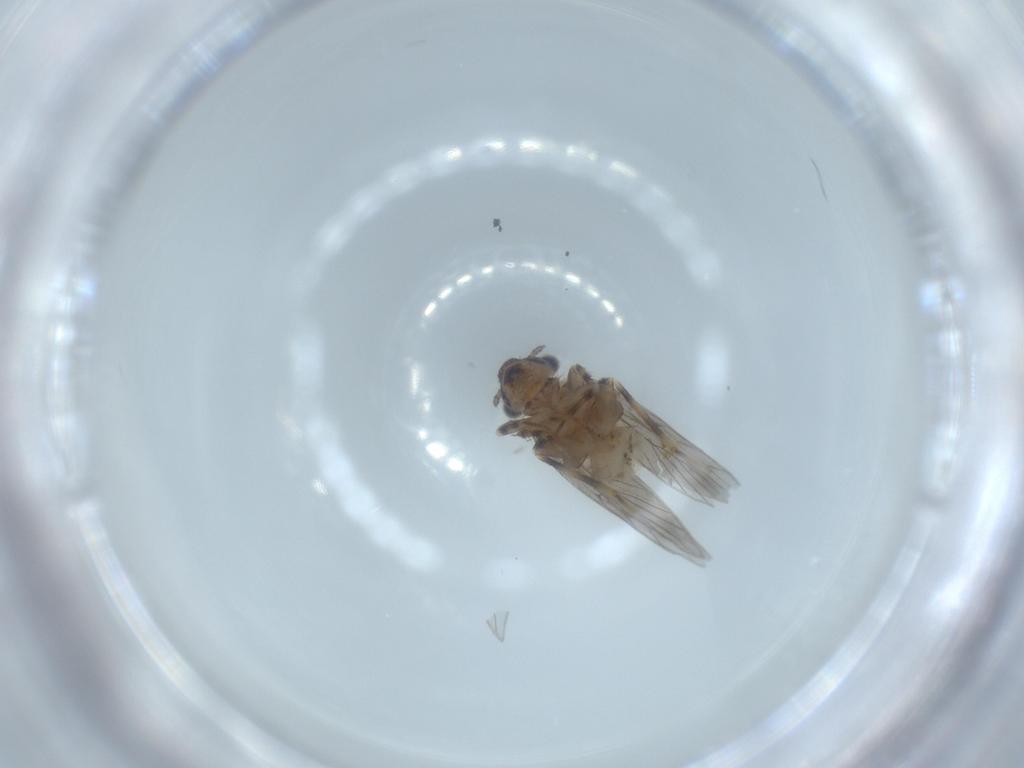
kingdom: Animalia
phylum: Arthropoda
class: Insecta
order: Psocodea
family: Lepidopsocidae
